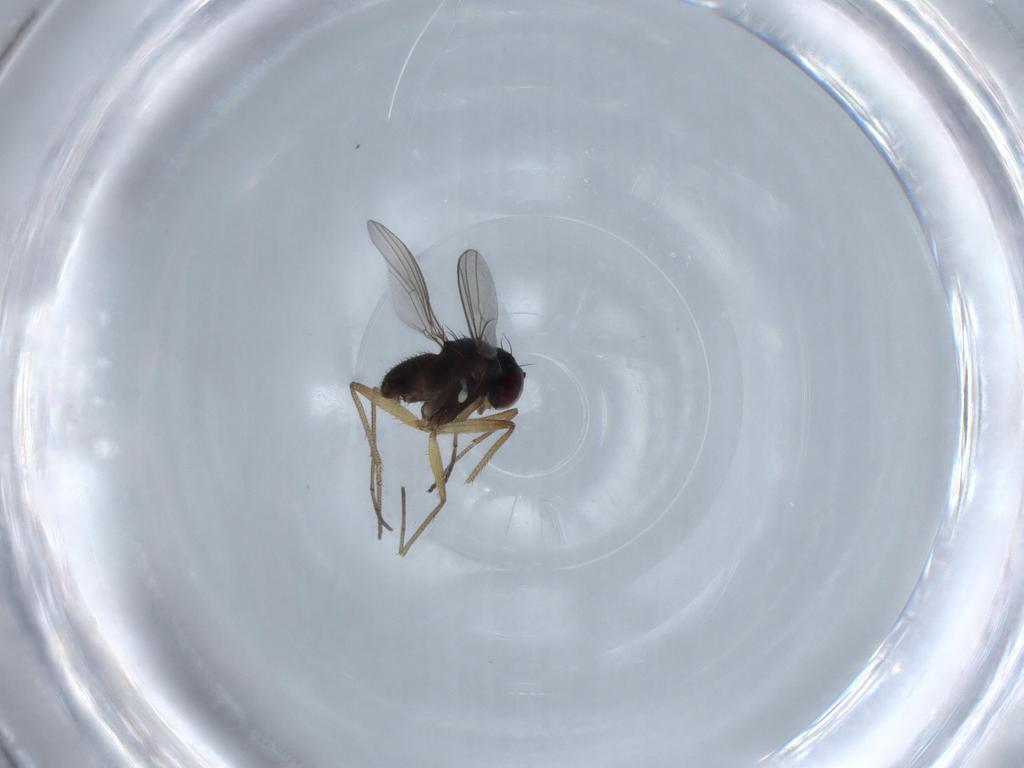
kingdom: Animalia
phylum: Arthropoda
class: Insecta
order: Diptera
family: Dolichopodidae
